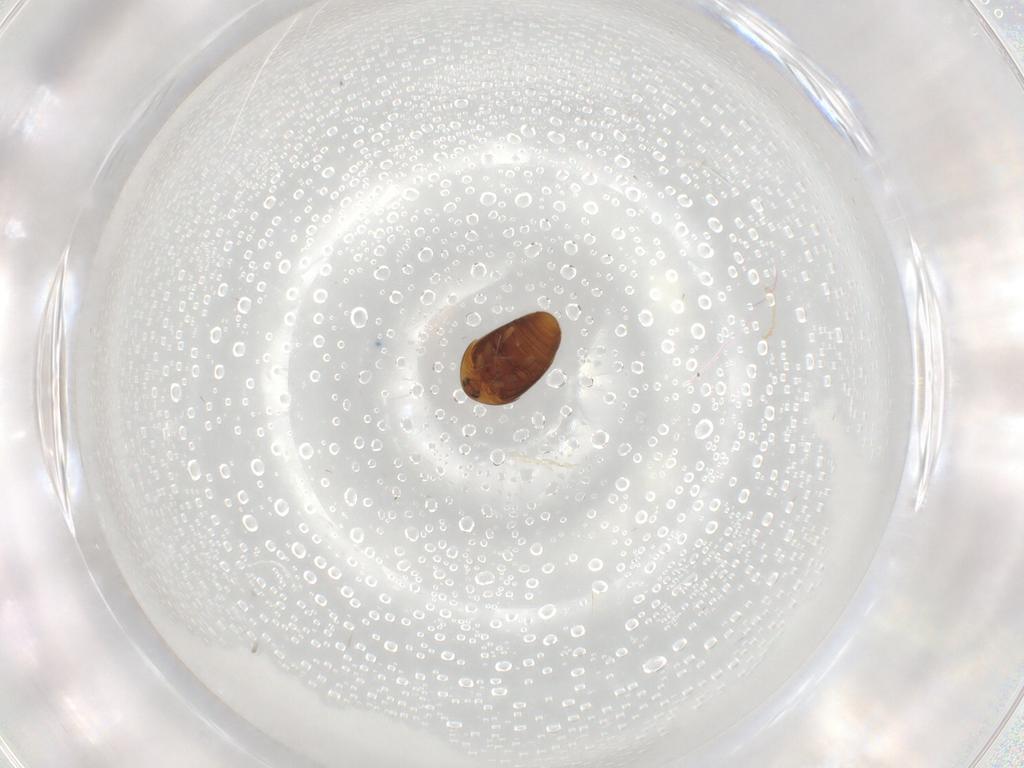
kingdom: Animalia
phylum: Arthropoda
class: Insecta
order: Coleoptera
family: Corylophidae
